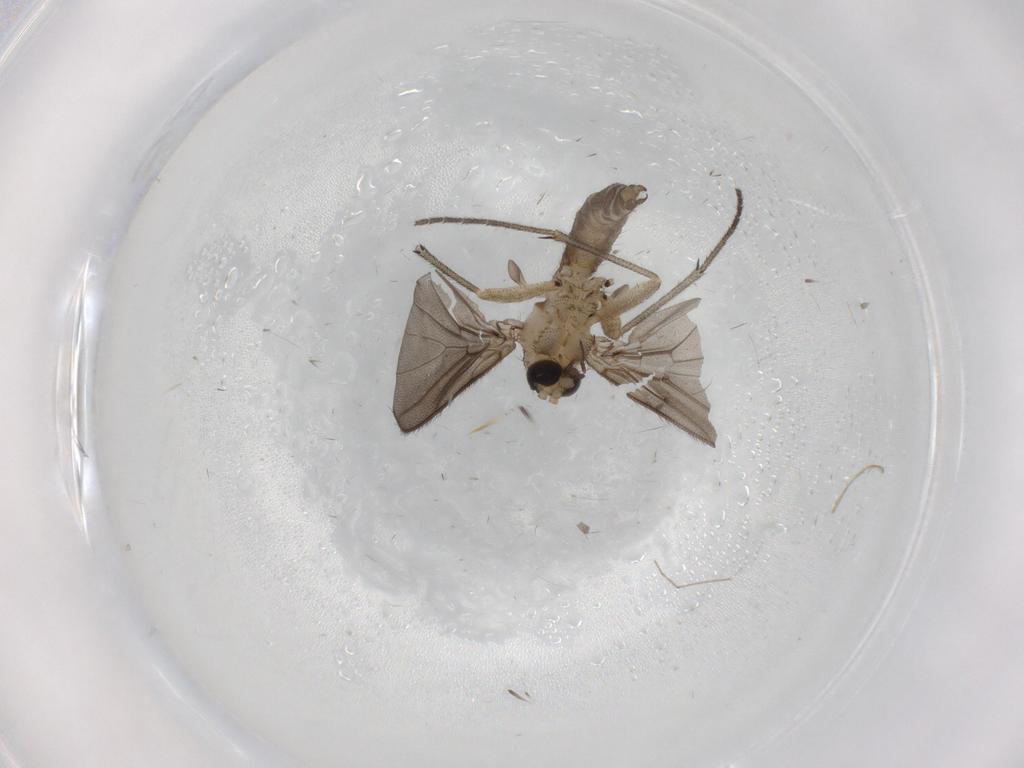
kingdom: Animalia
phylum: Arthropoda
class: Insecta
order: Diptera
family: Diadocidiidae
